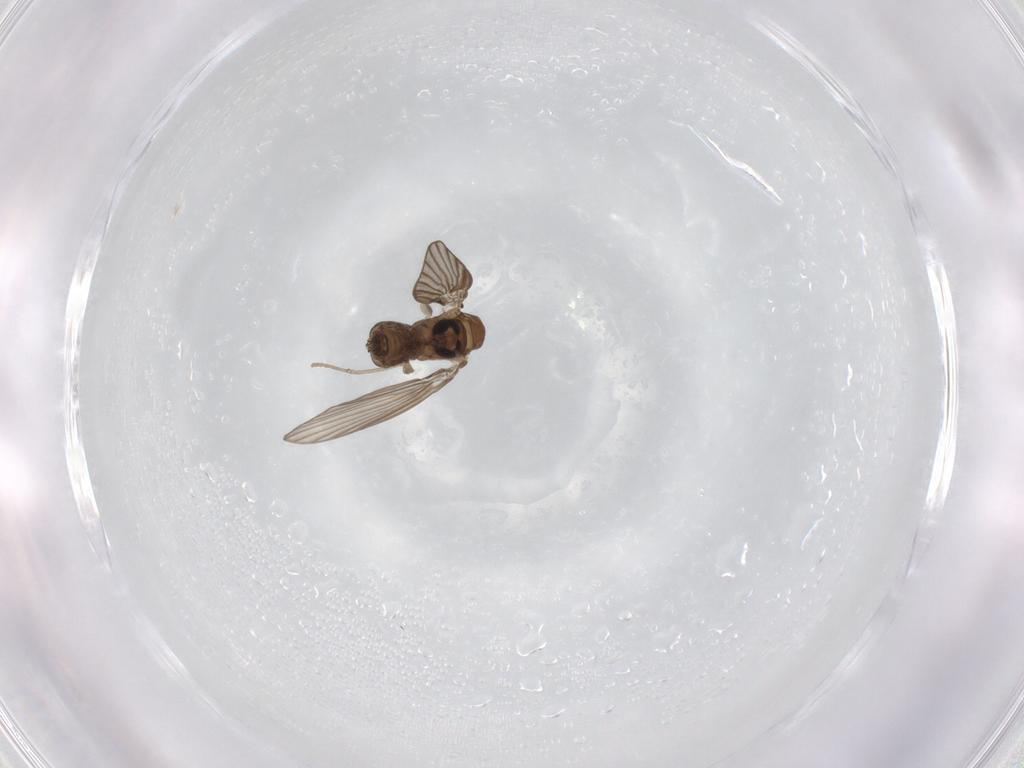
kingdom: Animalia
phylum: Arthropoda
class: Insecta
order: Diptera
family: Psychodidae
